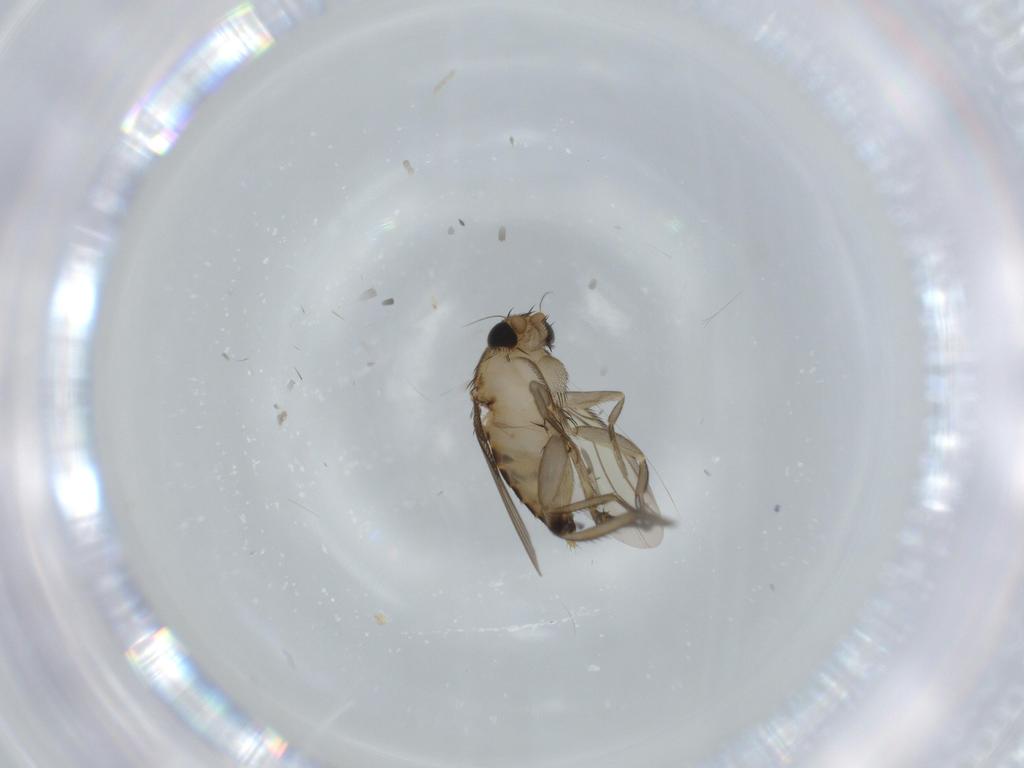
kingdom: Animalia
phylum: Arthropoda
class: Insecta
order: Diptera
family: Phoridae
